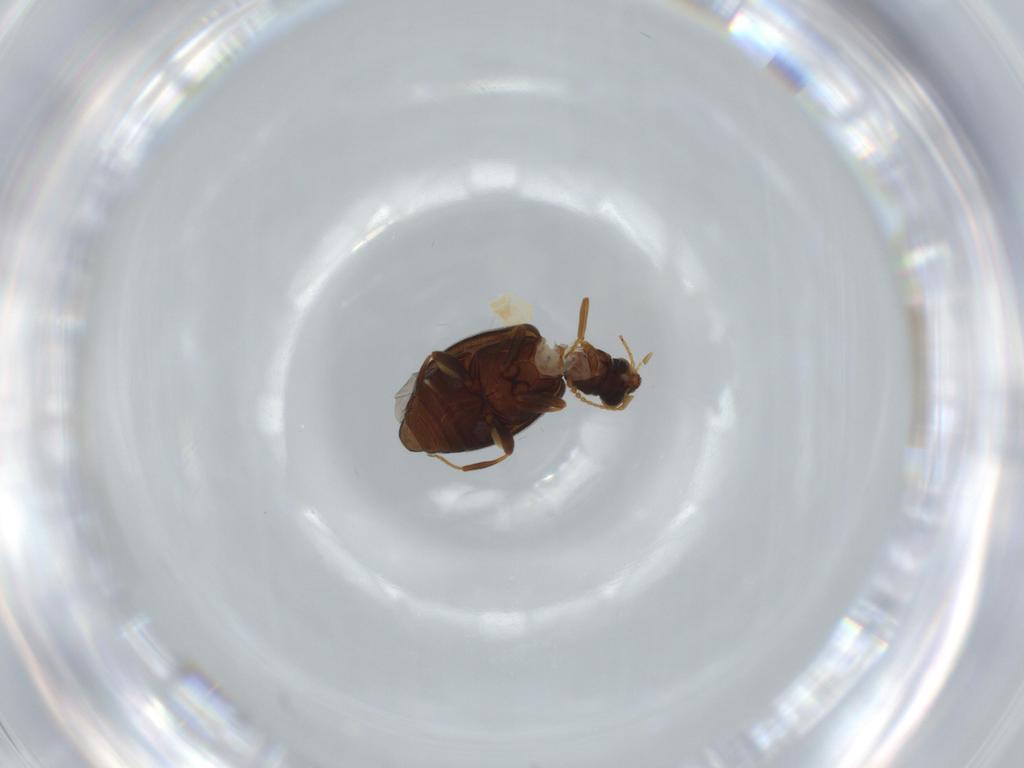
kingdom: Animalia
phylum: Arthropoda
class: Insecta
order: Coleoptera
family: Aderidae
